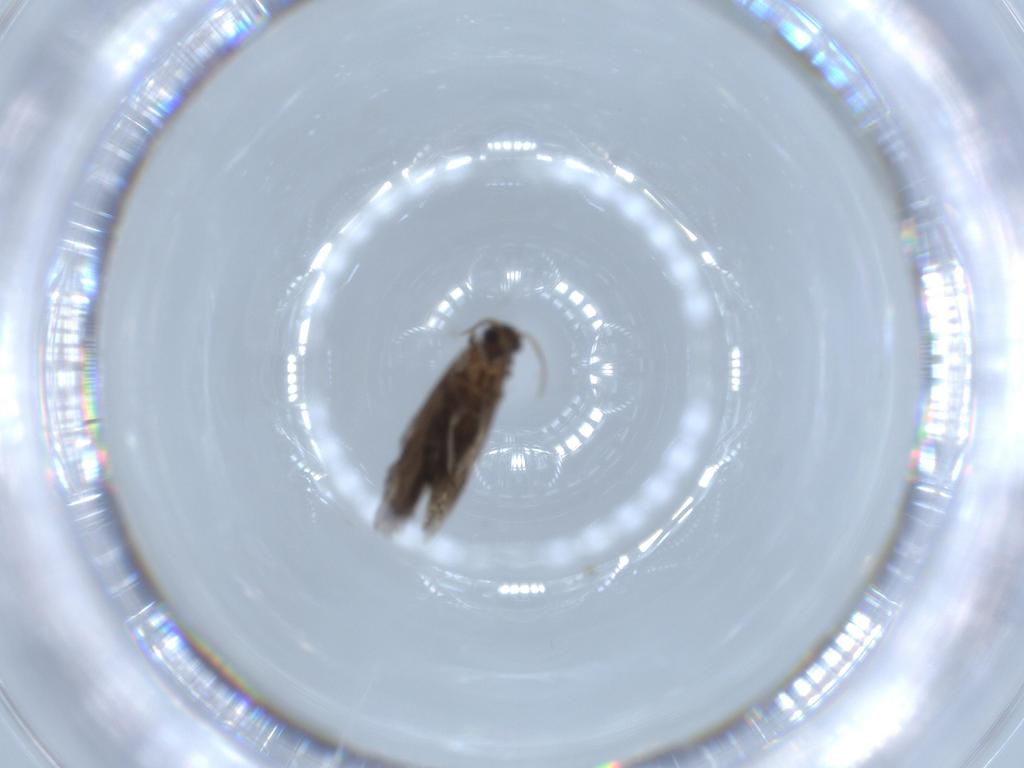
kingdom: Animalia
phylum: Arthropoda
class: Insecta
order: Trichoptera
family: Hydroptilidae
